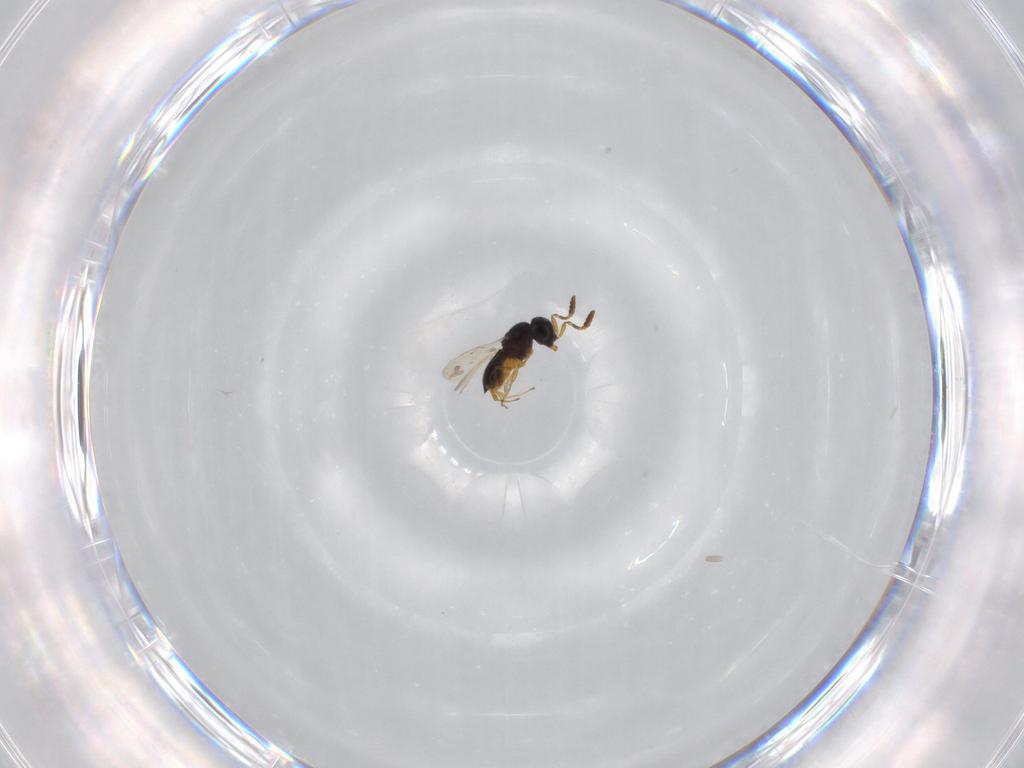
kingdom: Animalia
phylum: Arthropoda
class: Insecta
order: Hymenoptera
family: Scelionidae
